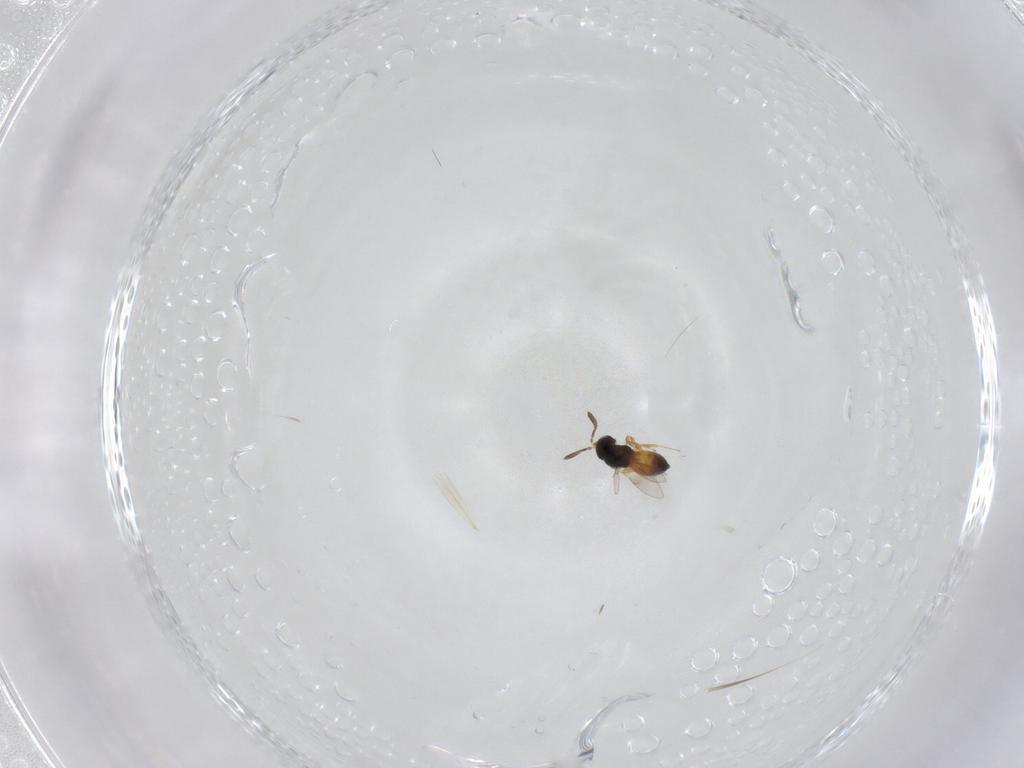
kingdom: Animalia
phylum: Arthropoda
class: Insecta
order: Hymenoptera
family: Scelionidae
